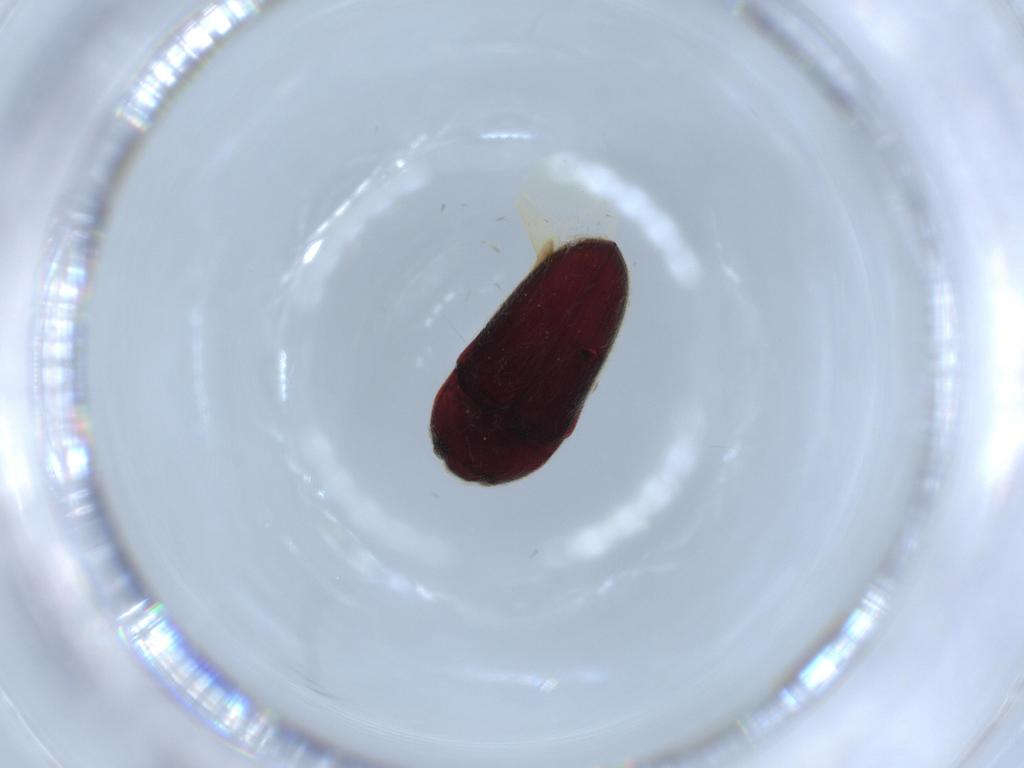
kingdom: Animalia
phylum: Arthropoda
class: Insecta
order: Coleoptera
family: Throscidae
